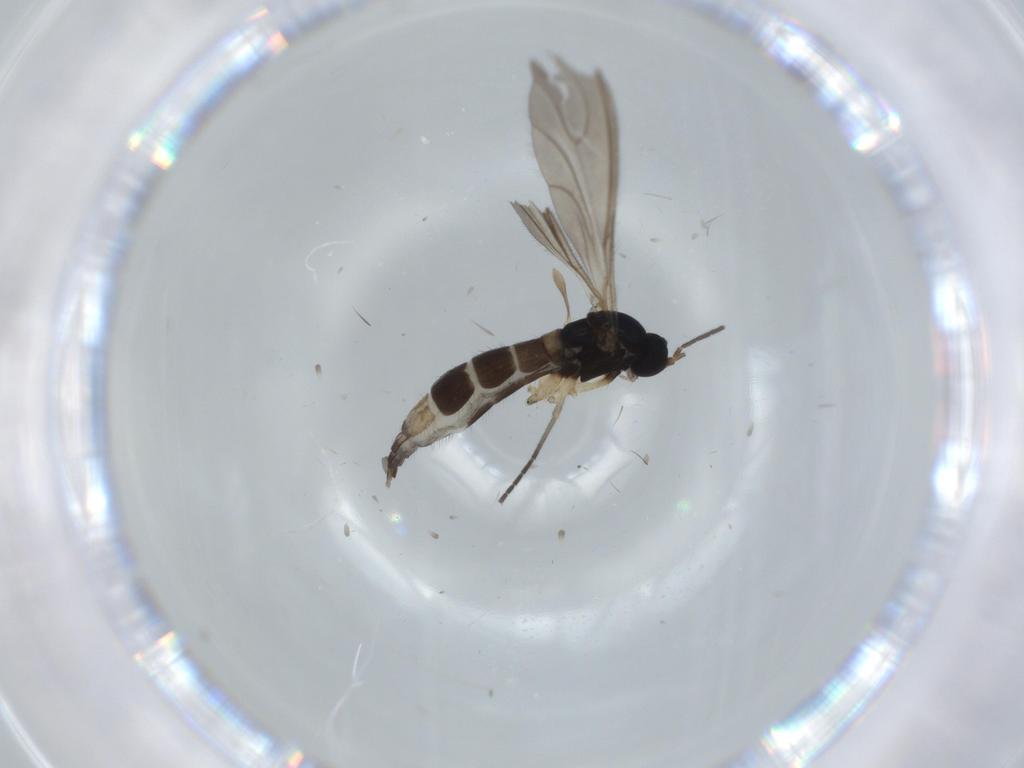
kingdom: Animalia
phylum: Arthropoda
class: Insecta
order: Diptera
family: Sciaridae
